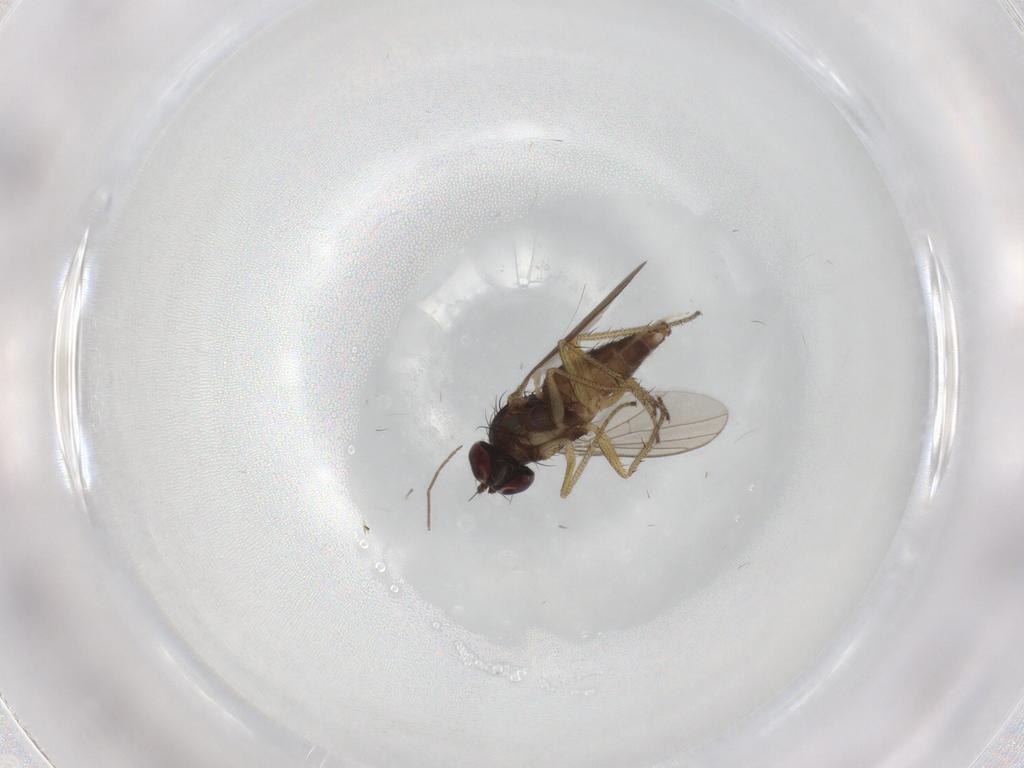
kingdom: Animalia
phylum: Arthropoda
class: Insecta
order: Diptera
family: Chironomidae
